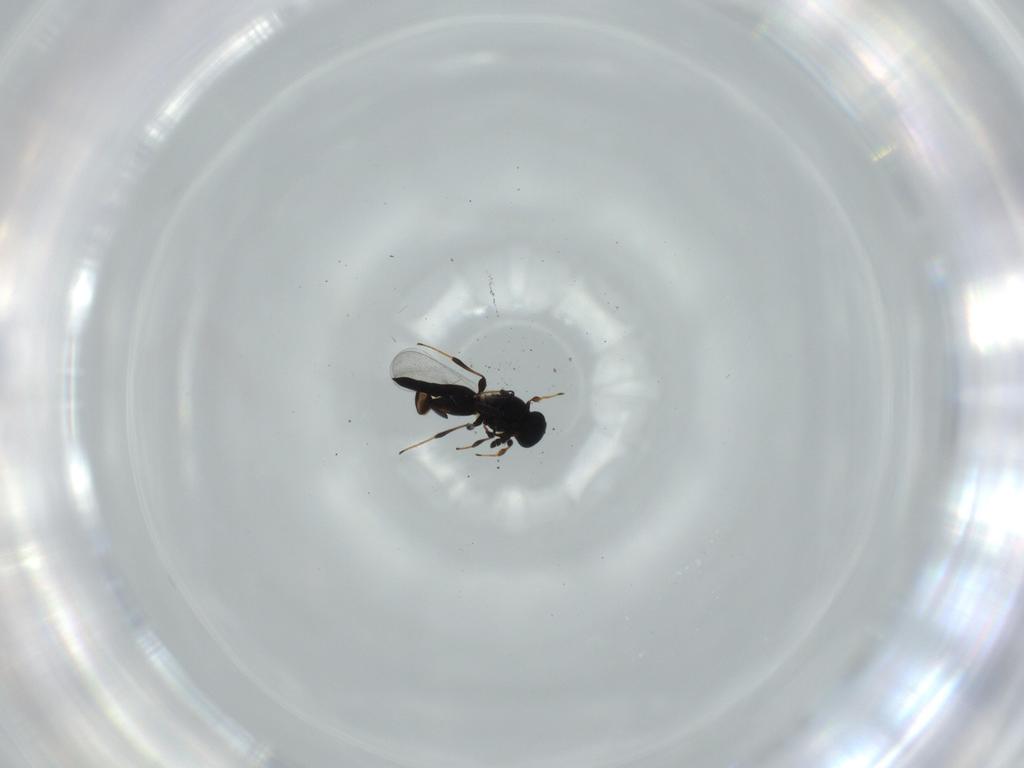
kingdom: Animalia
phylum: Arthropoda
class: Insecta
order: Hymenoptera
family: Platygastridae
